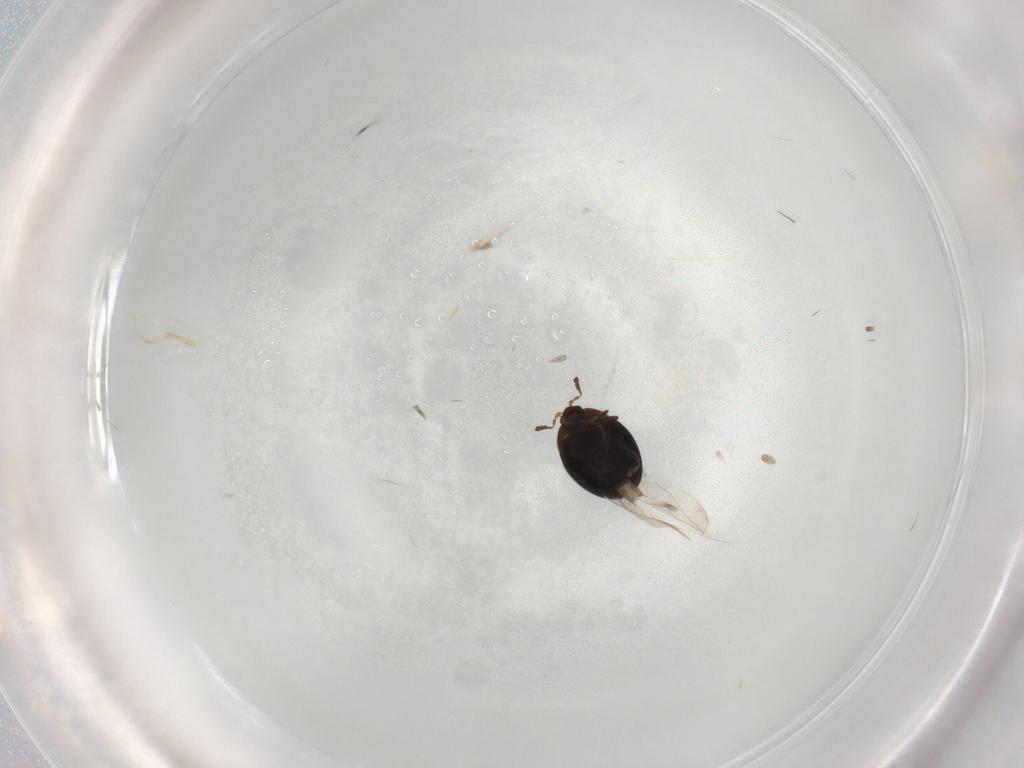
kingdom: Animalia
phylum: Arthropoda
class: Insecta
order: Coleoptera
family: Corylophidae
